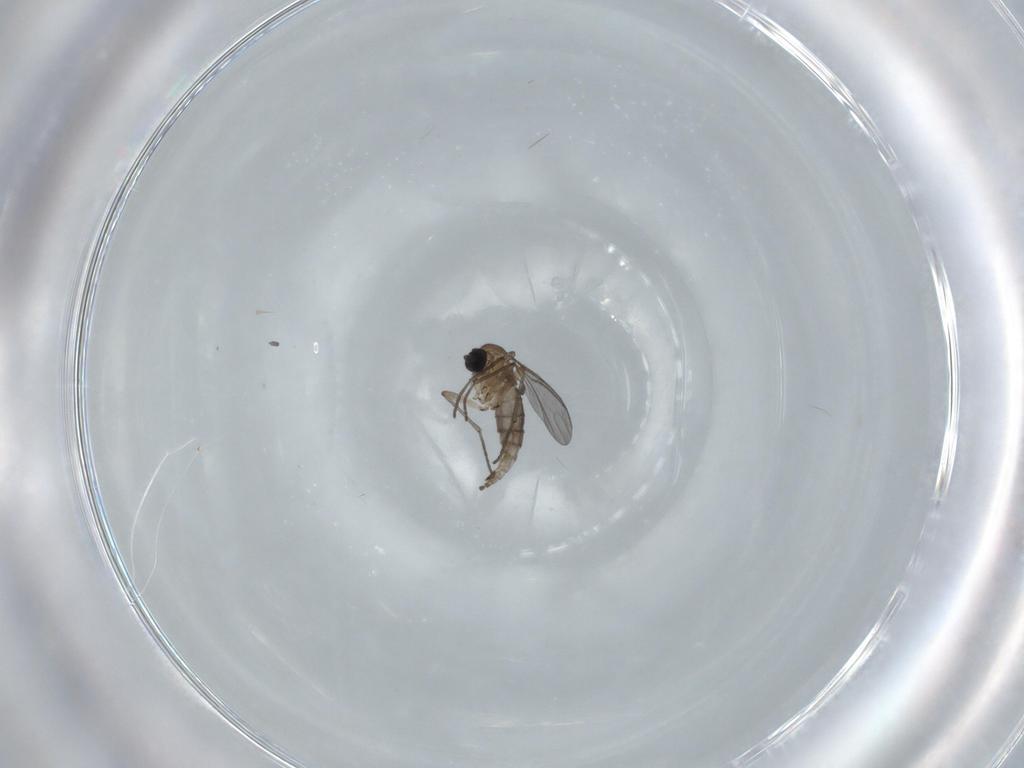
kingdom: Animalia
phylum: Arthropoda
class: Insecta
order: Diptera
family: Sciaridae
